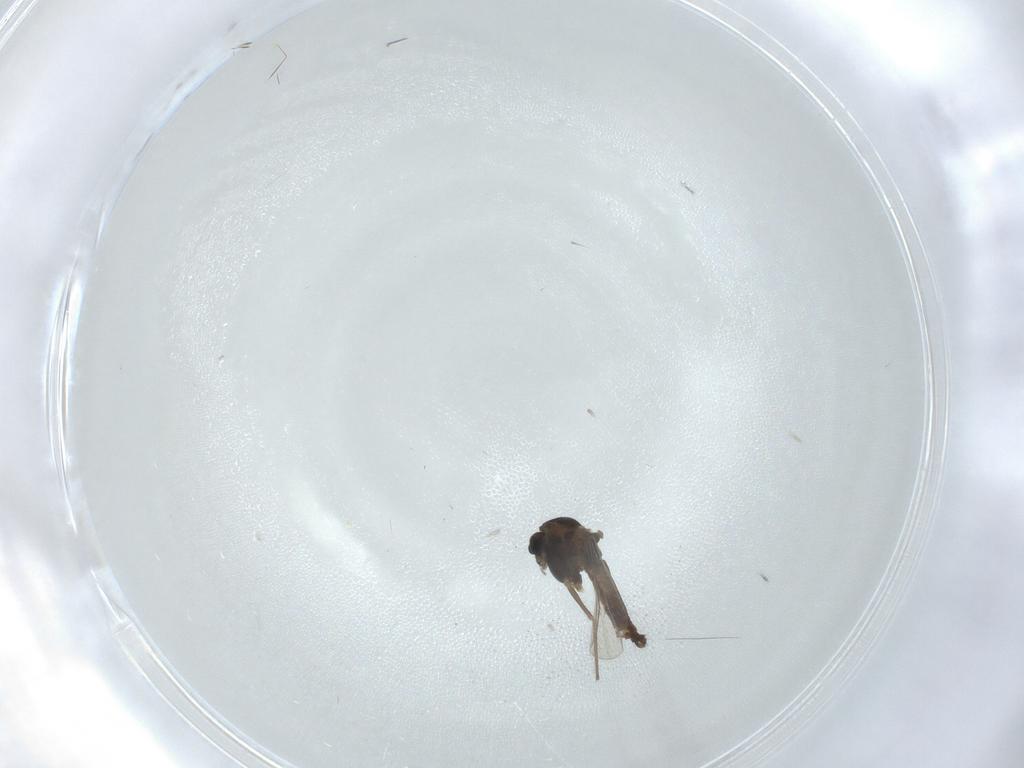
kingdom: Animalia
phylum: Arthropoda
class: Insecta
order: Diptera
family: Chironomidae
